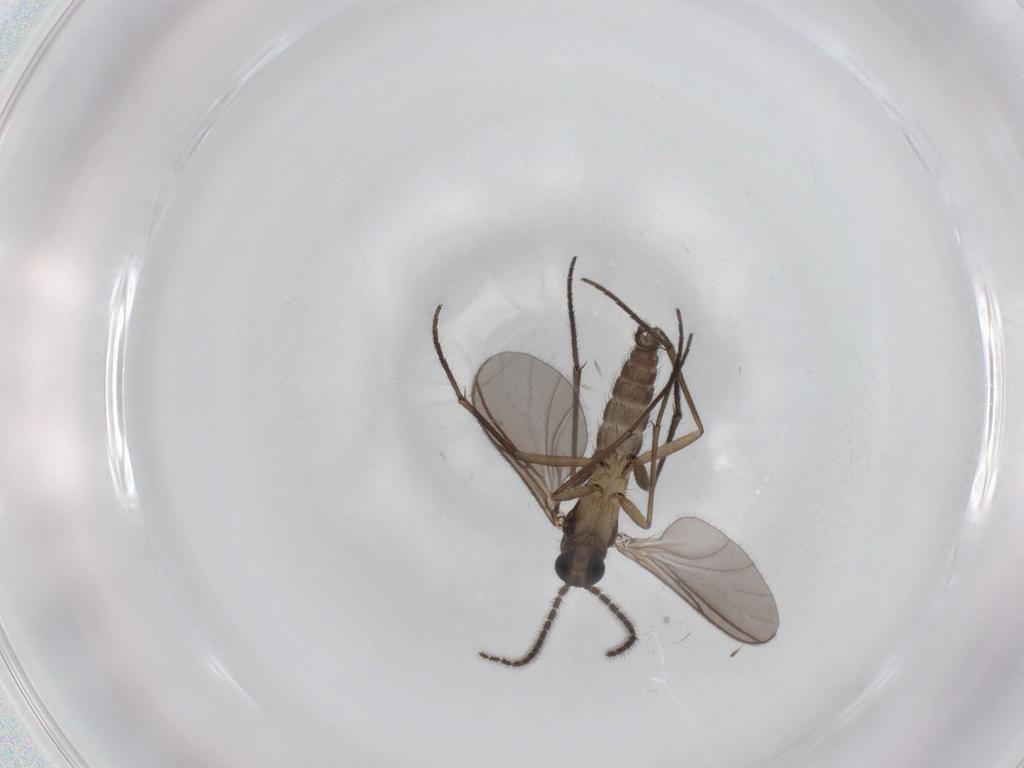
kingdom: Animalia
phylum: Arthropoda
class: Insecta
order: Diptera
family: Sciaridae
